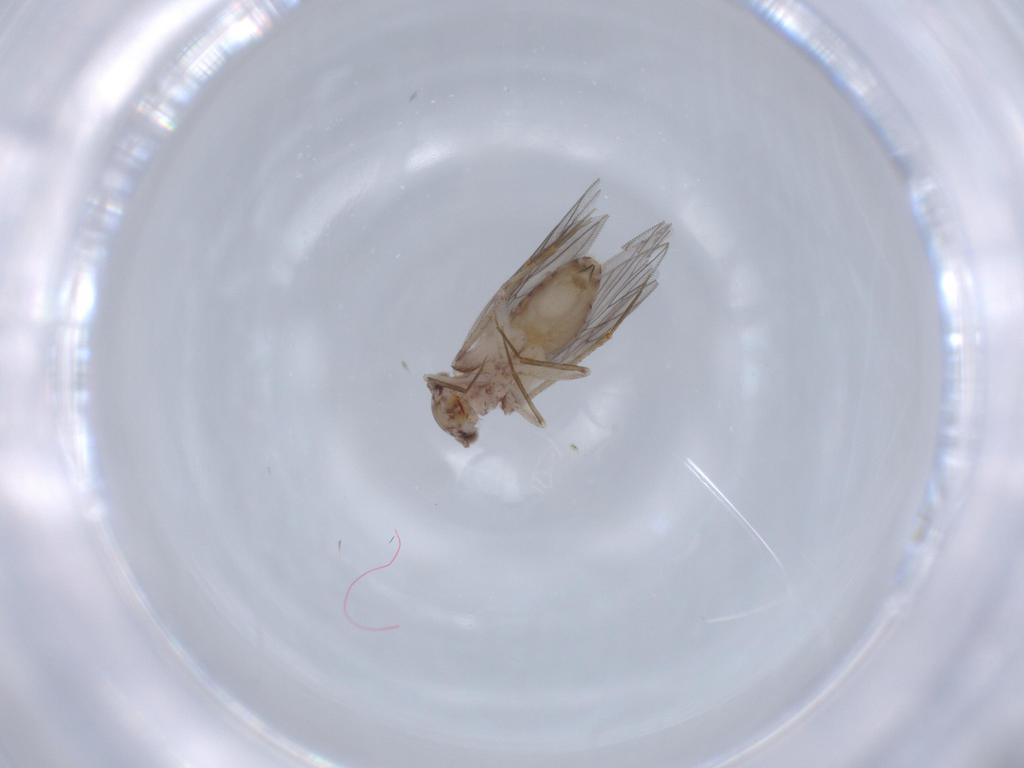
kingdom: Animalia
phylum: Arthropoda
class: Insecta
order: Psocodea
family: Lepidopsocidae
